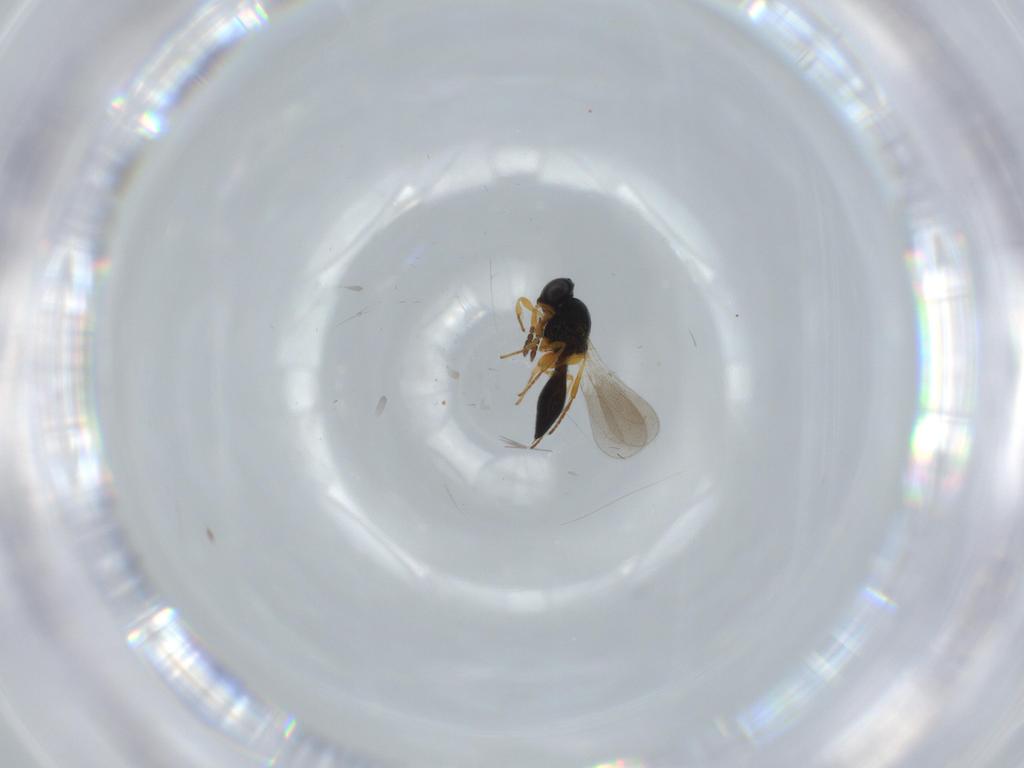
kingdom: Animalia
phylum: Arthropoda
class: Insecta
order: Hymenoptera
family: Platygastridae
